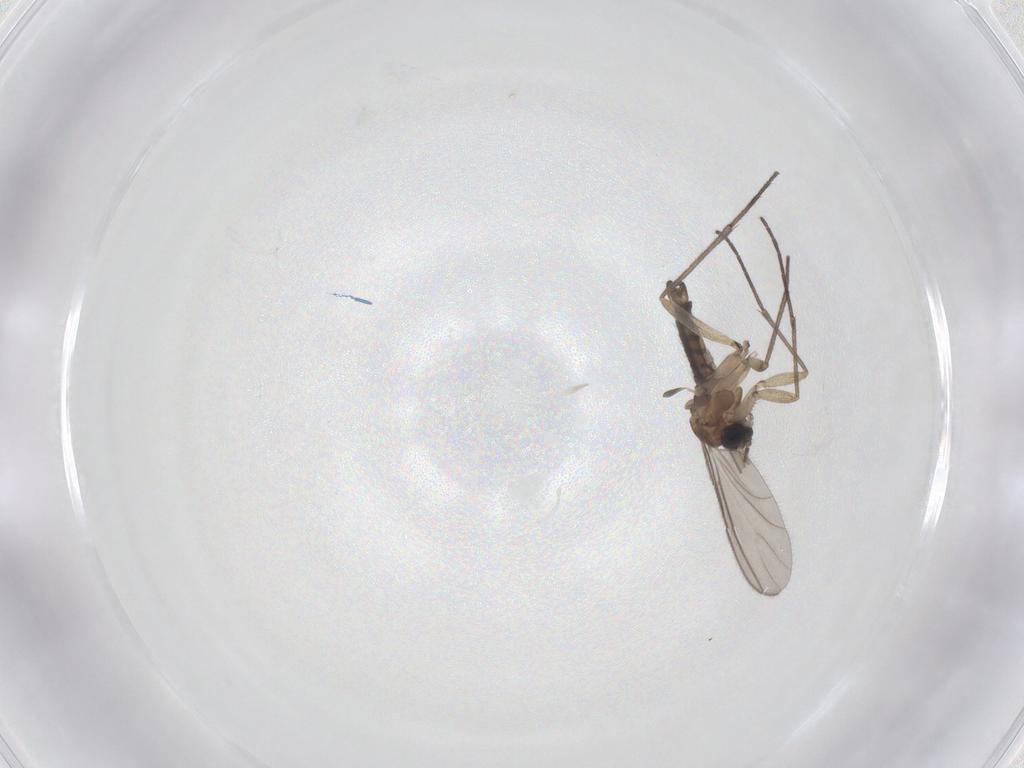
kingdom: Animalia
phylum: Arthropoda
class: Insecta
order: Diptera
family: Sciaridae
